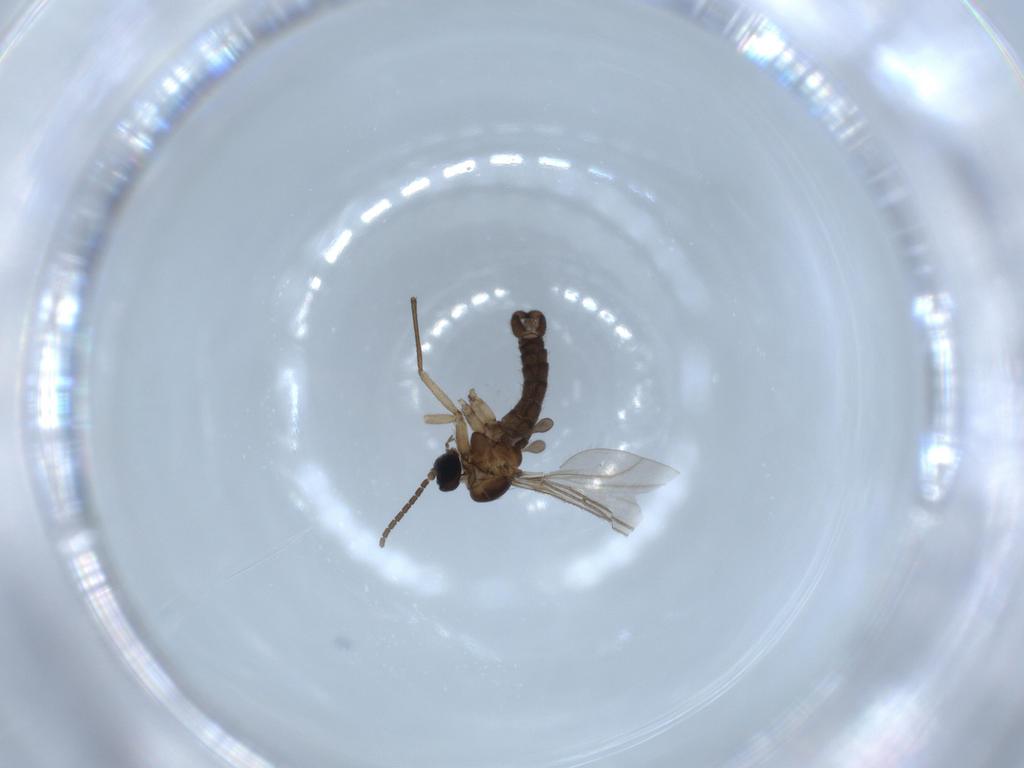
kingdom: Animalia
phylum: Arthropoda
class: Insecta
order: Diptera
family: Sciaridae
